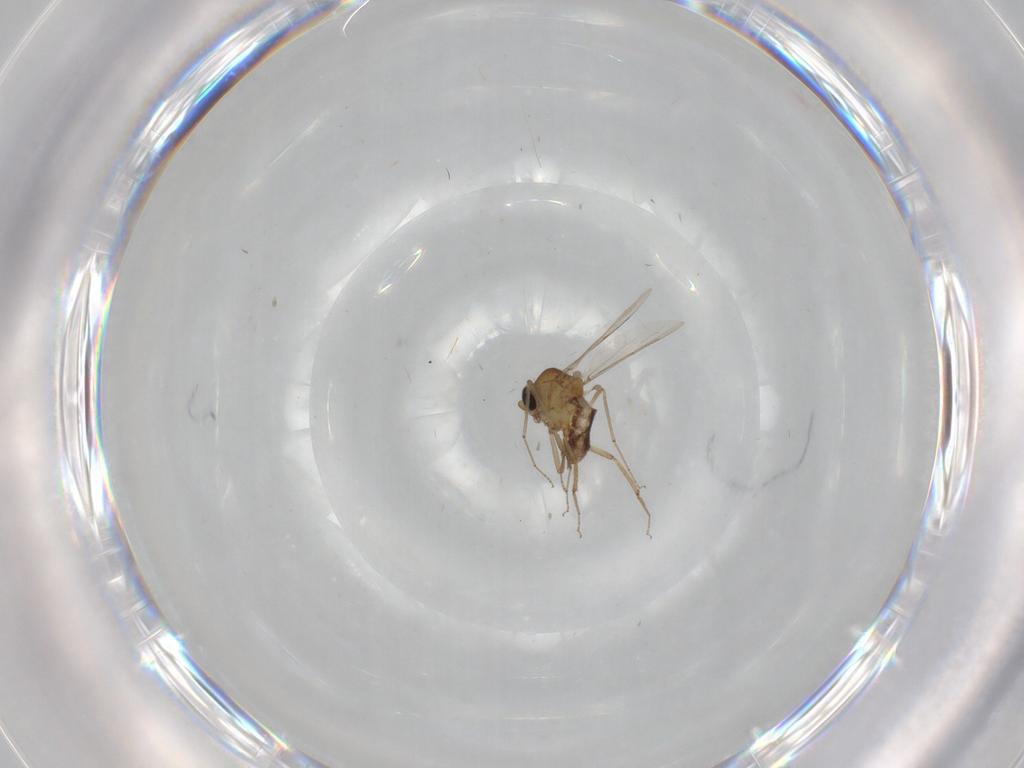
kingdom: Animalia
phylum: Arthropoda
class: Insecta
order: Diptera
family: Ceratopogonidae
